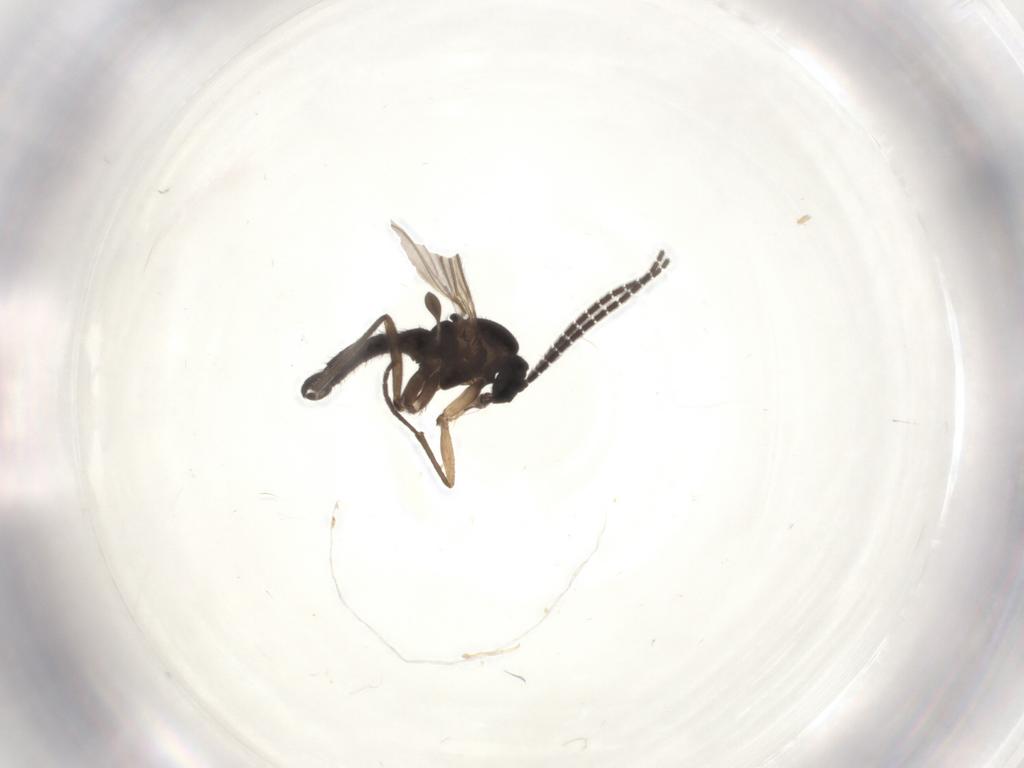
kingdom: Animalia
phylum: Arthropoda
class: Insecta
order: Diptera
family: Sciaridae
